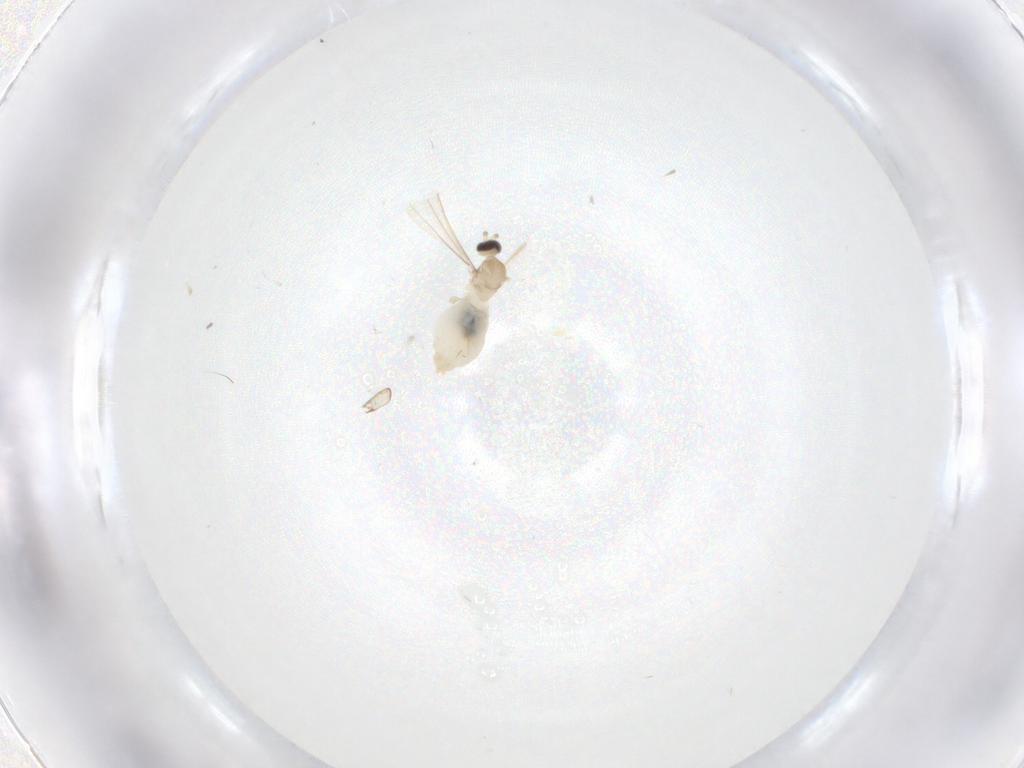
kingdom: Animalia
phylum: Arthropoda
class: Insecta
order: Diptera
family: Cecidomyiidae
